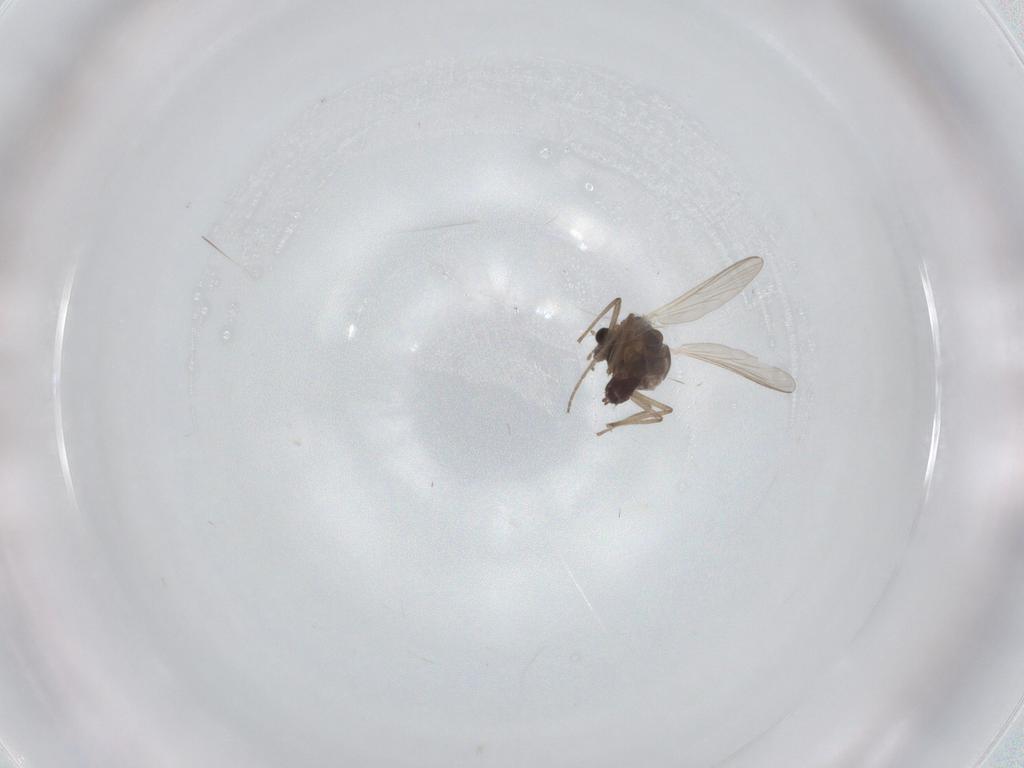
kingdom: Animalia
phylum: Arthropoda
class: Insecta
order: Diptera
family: Chironomidae
